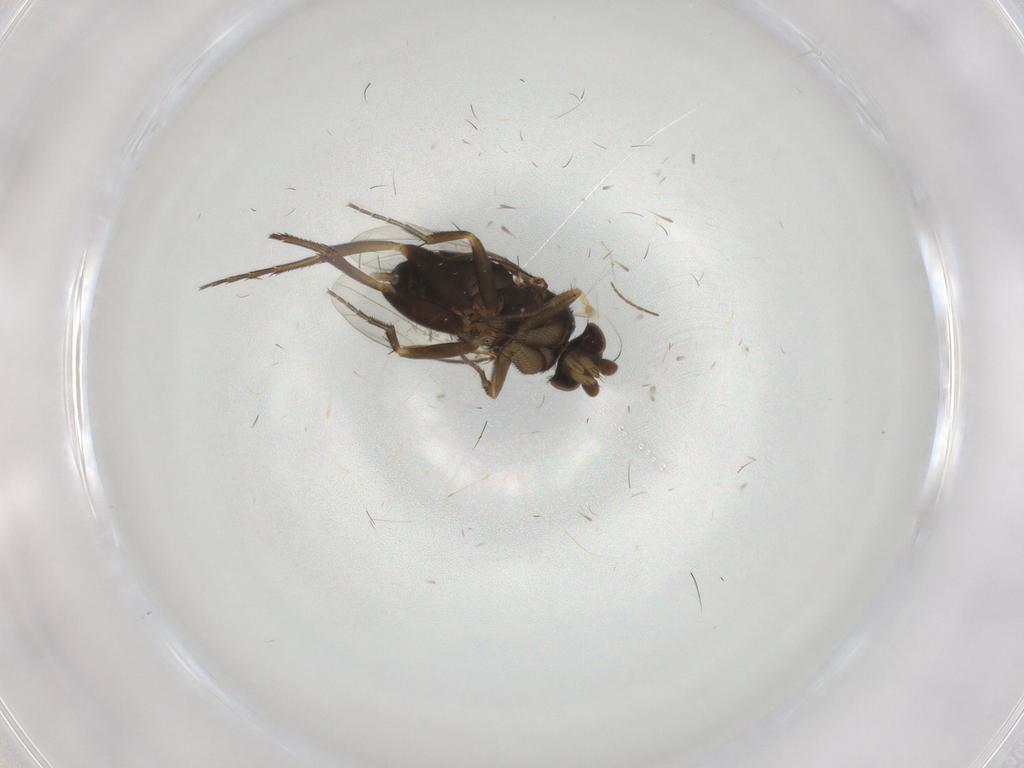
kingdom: Animalia
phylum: Arthropoda
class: Insecta
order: Diptera
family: Phoridae
